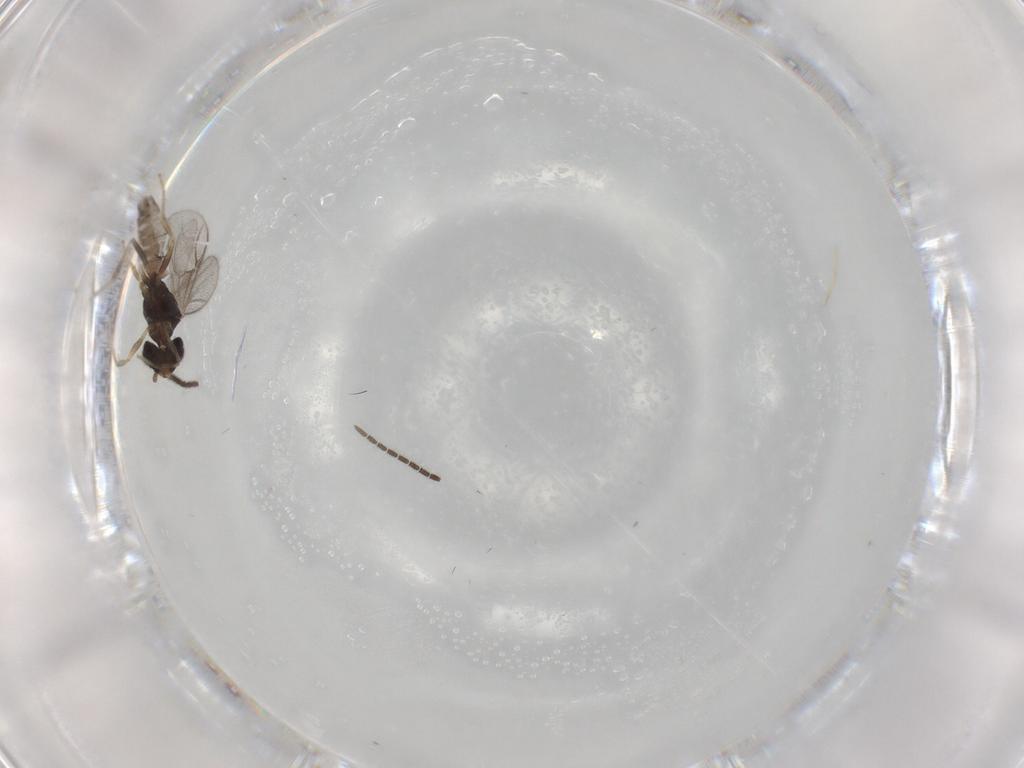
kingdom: Animalia
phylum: Arthropoda
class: Insecta
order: Hymenoptera
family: Dryinidae
